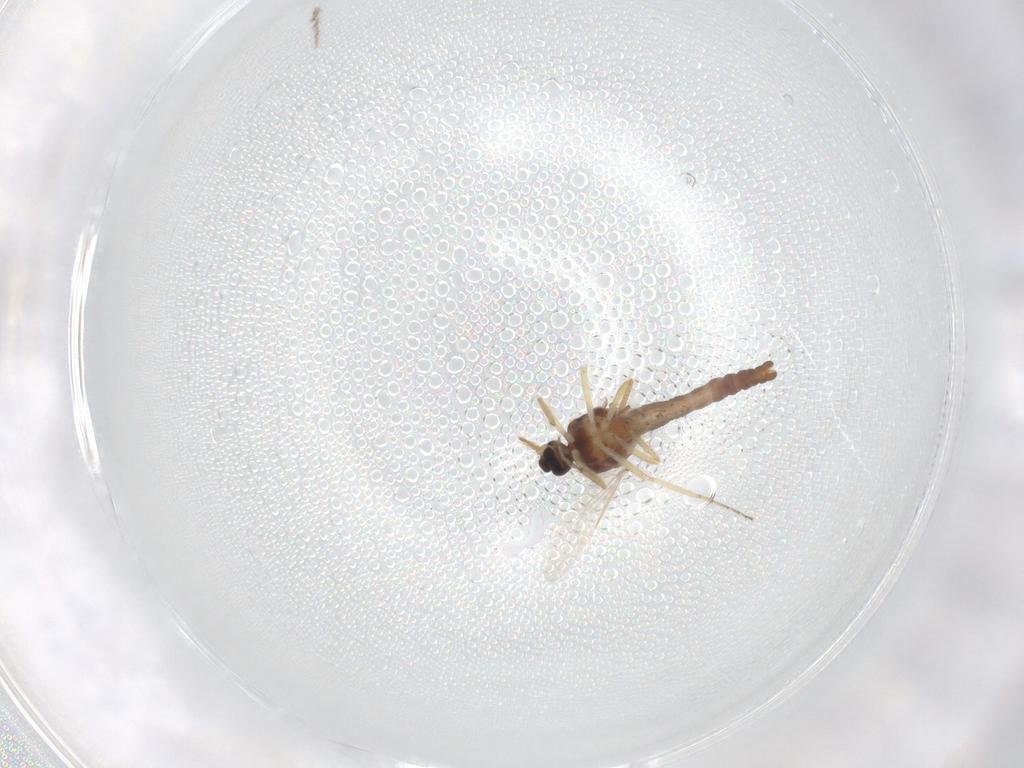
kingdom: Animalia
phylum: Arthropoda
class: Insecta
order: Diptera
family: Ceratopogonidae
